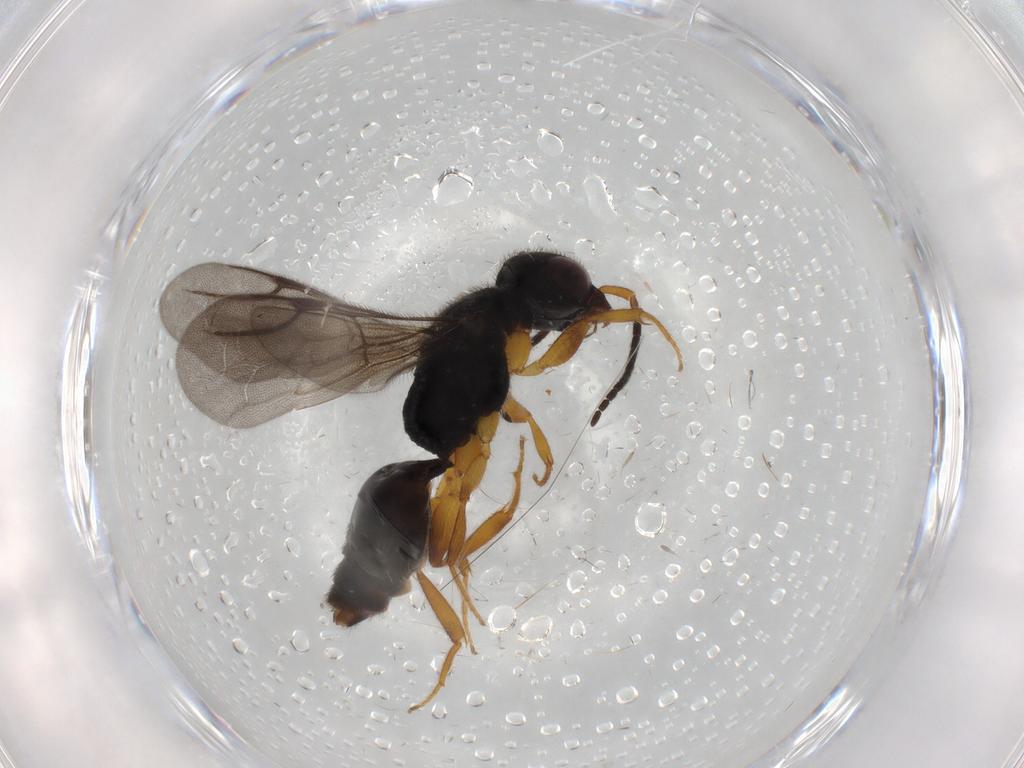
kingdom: Animalia
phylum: Arthropoda
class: Insecta
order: Hymenoptera
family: Bethylidae
